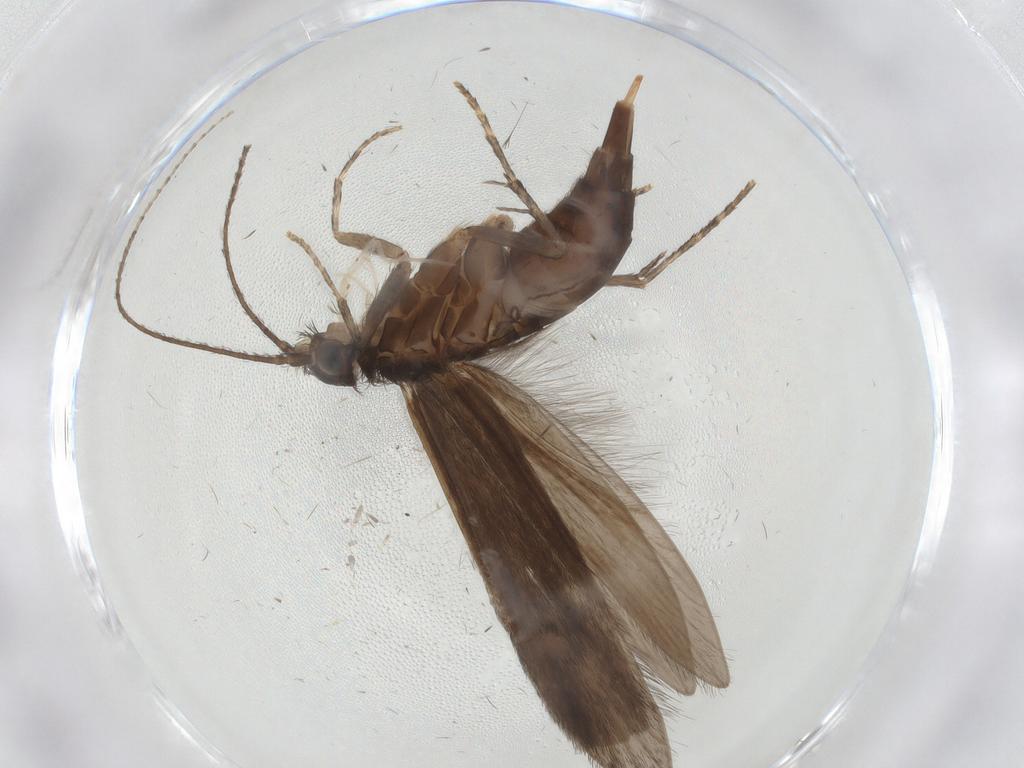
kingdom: Animalia
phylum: Arthropoda
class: Insecta
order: Trichoptera
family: Xiphocentronidae
